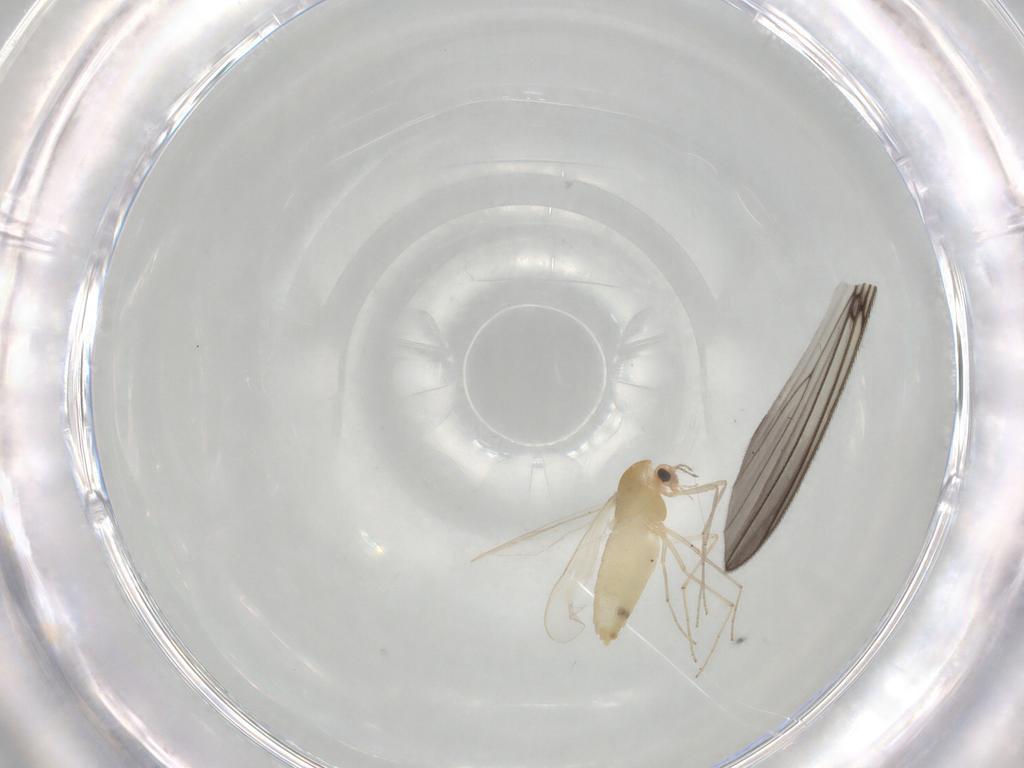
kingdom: Animalia
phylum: Arthropoda
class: Insecta
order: Diptera
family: Chironomidae
